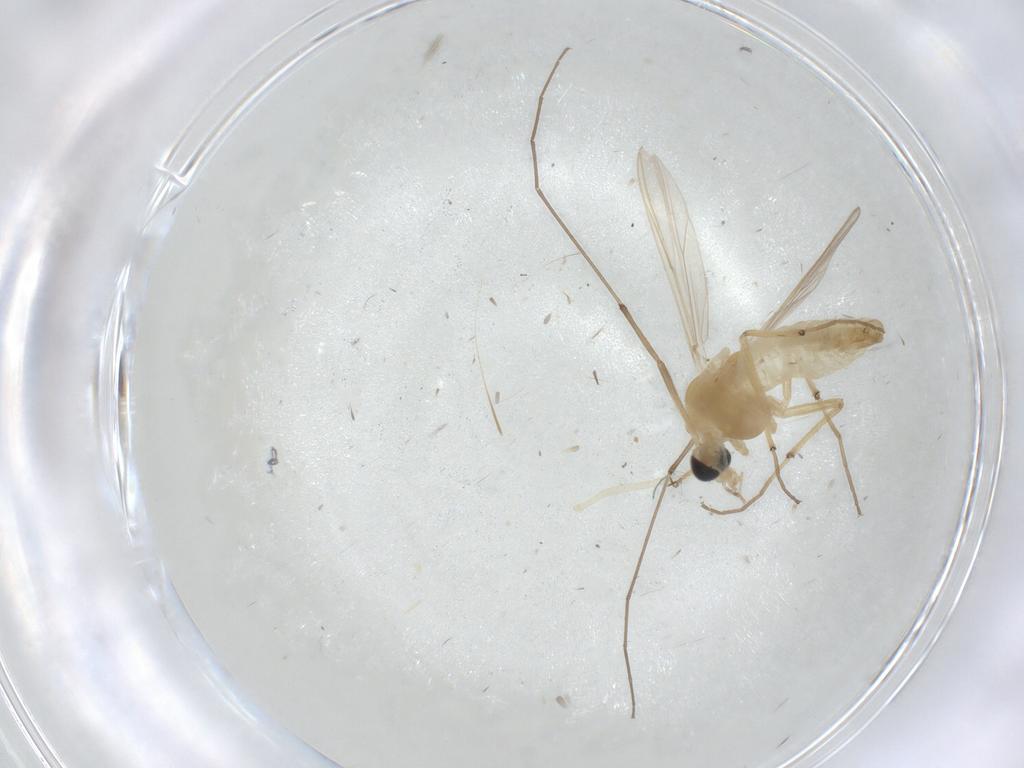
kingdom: Animalia
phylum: Arthropoda
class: Insecta
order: Diptera
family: Chironomidae
